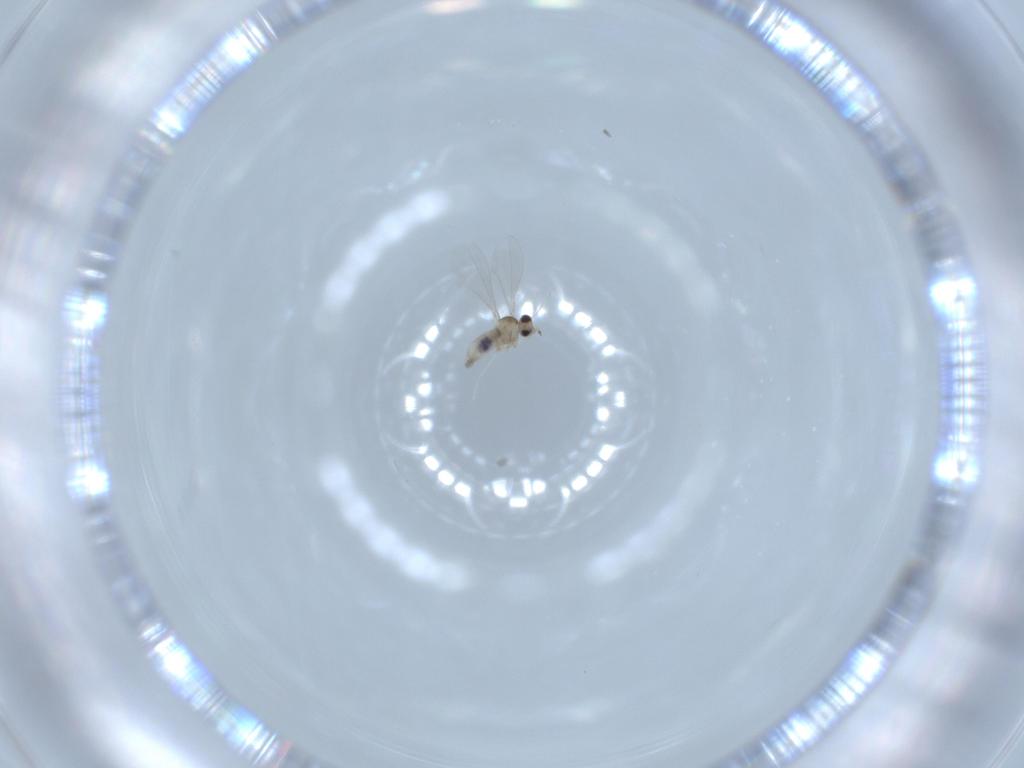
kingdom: Animalia
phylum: Arthropoda
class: Insecta
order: Diptera
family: Cecidomyiidae
